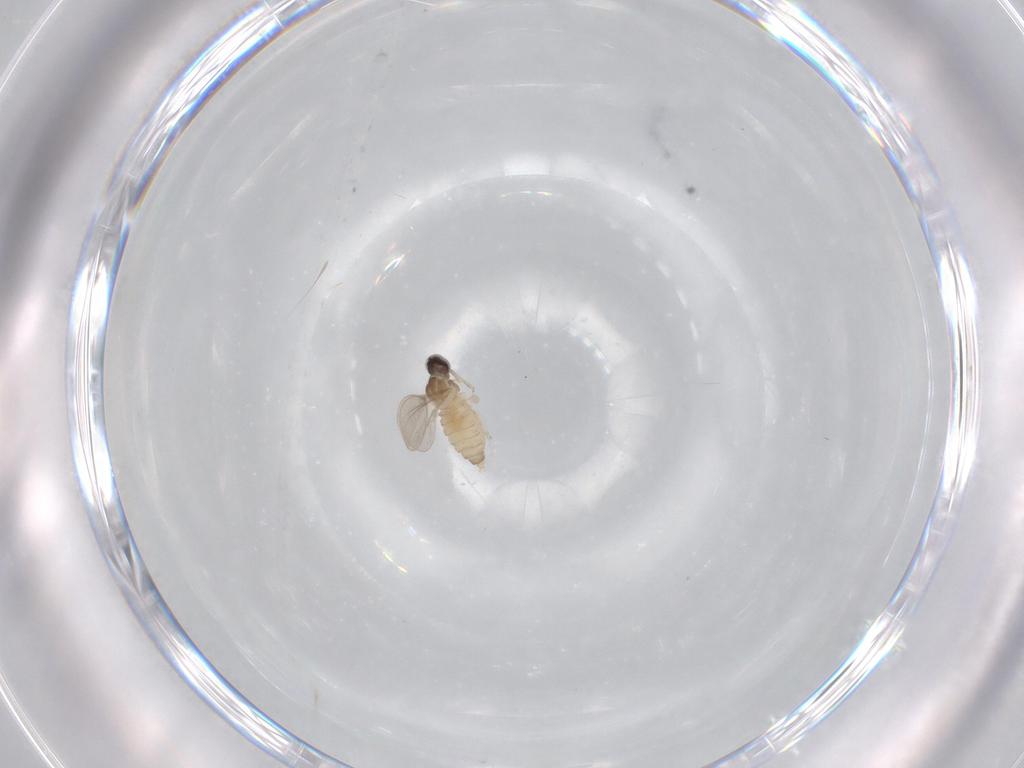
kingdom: Animalia
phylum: Arthropoda
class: Insecta
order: Diptera
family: Cecidomyiidae
